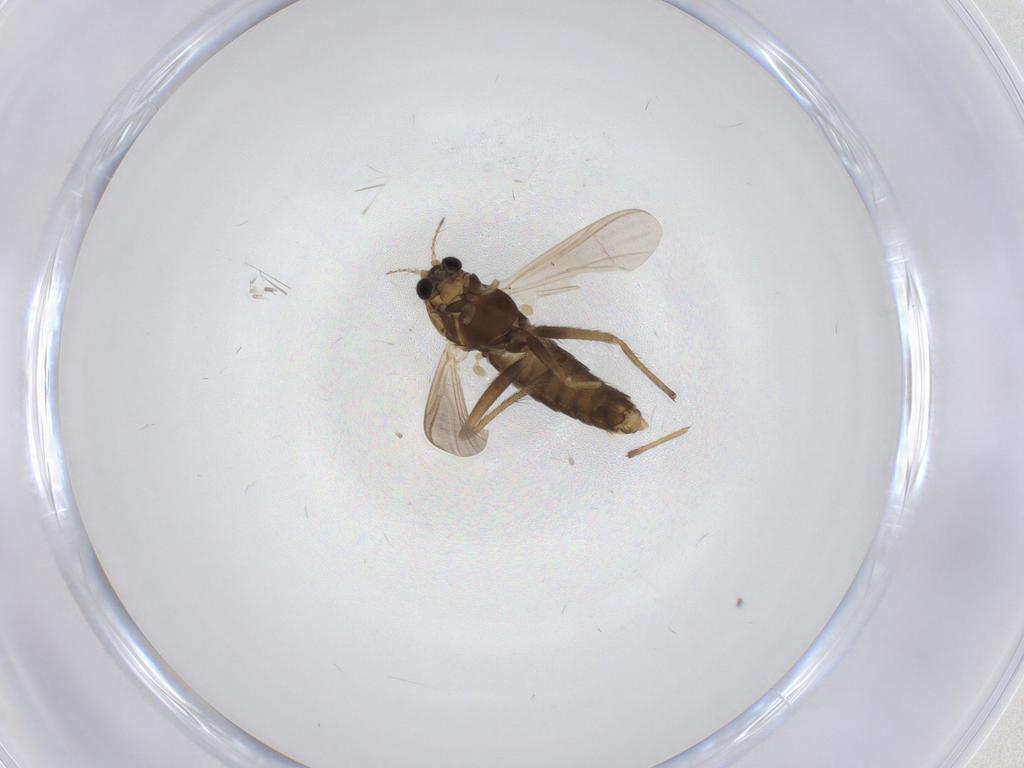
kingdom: Animalia
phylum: Arthropoda
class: Insecta
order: Diptera
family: Chironomidae
